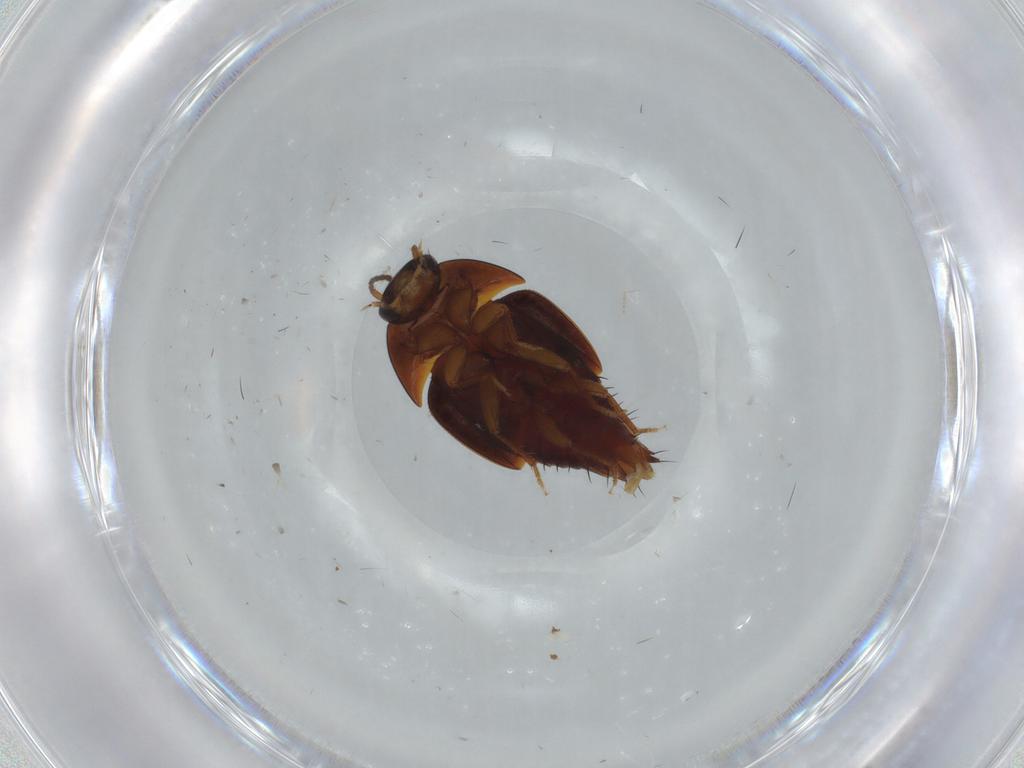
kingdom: Animalia
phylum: Arthropoda
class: Insecta
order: Coleoptera
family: Staphylinidae
